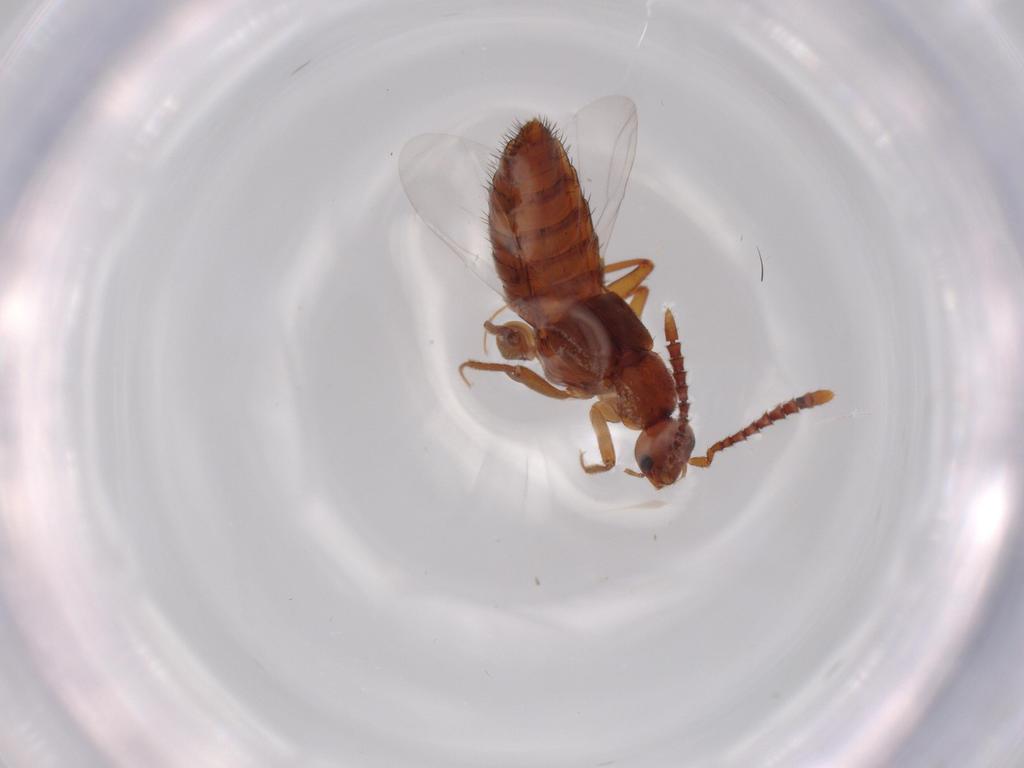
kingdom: Animalia
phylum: Arthropoda
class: Insecta
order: Coleoptera
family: Staphylinidae
